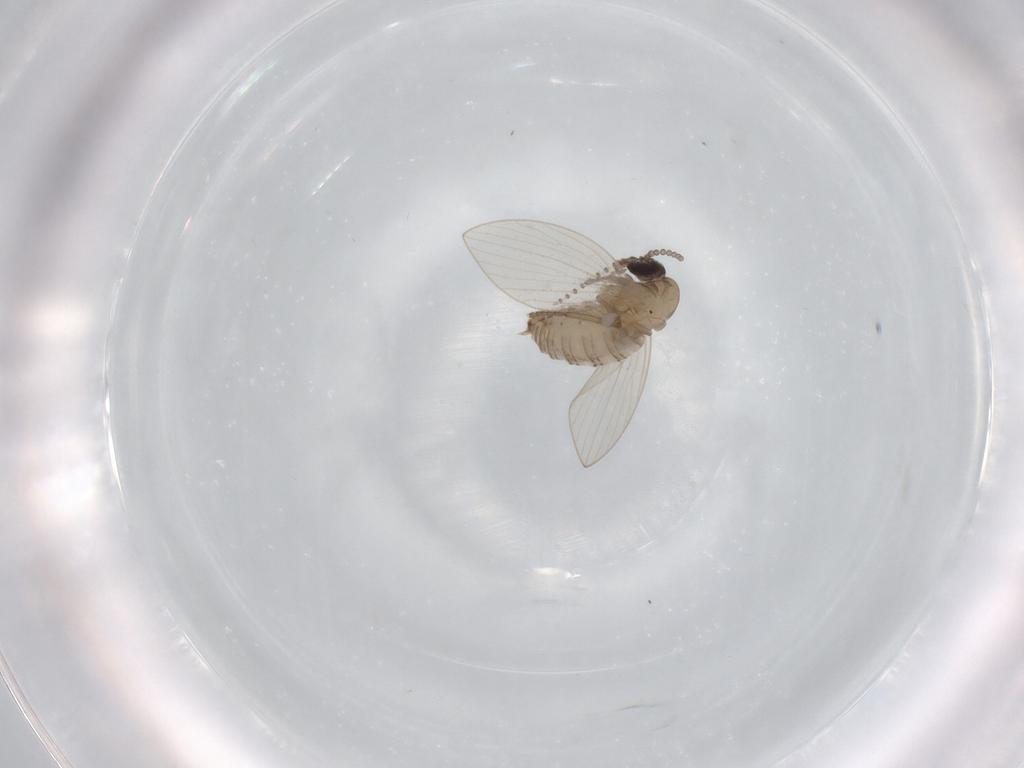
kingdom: Animalia
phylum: Arthropoda
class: Insecta
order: Diptera
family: Psychodidae
